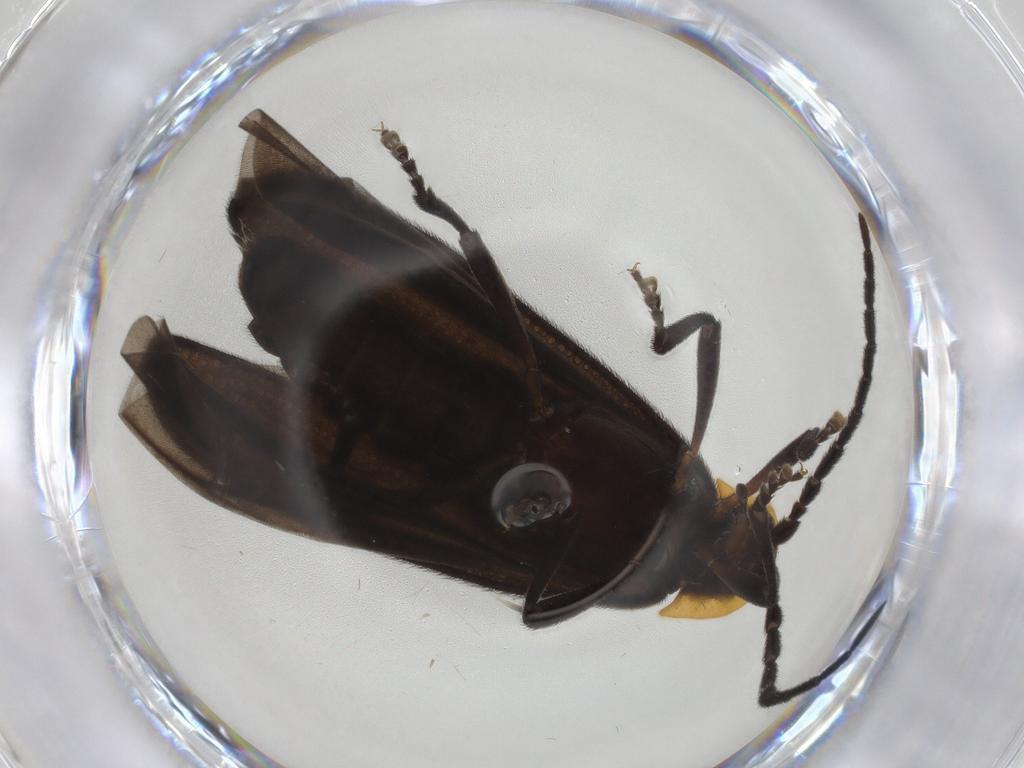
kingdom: Animalia
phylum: Arthropoda
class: Insecta
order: Coleoptera
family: Lycidae
